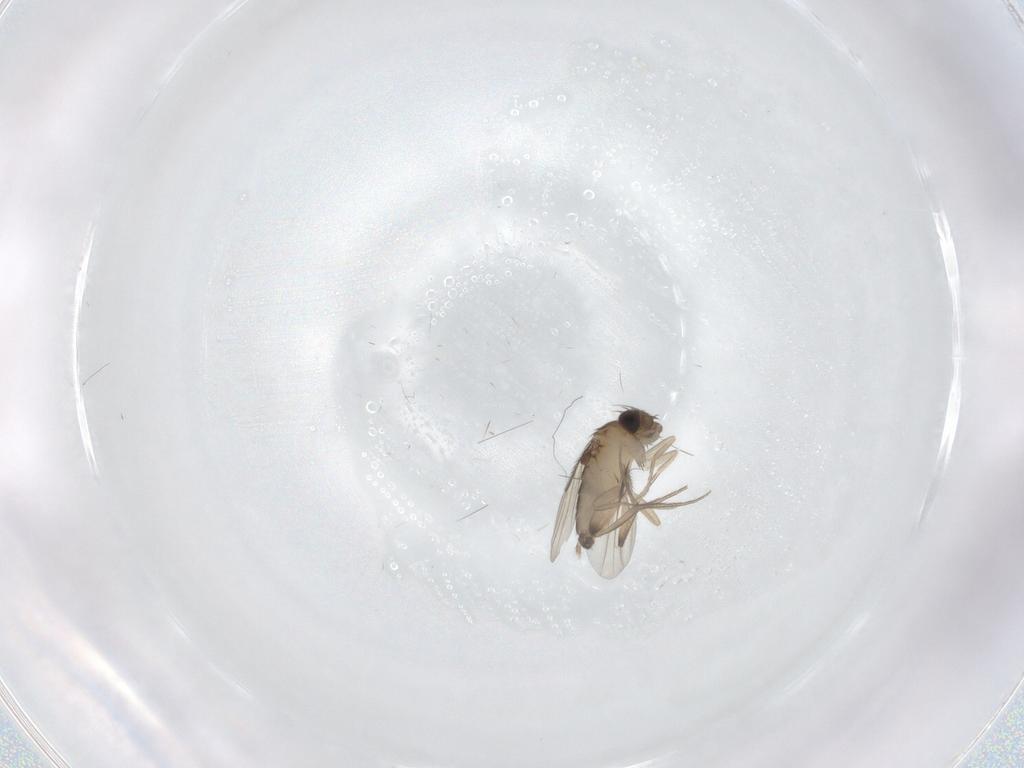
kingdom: Animalia
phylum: Arthropoda
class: Insecta
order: Diptera
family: Phoridae
